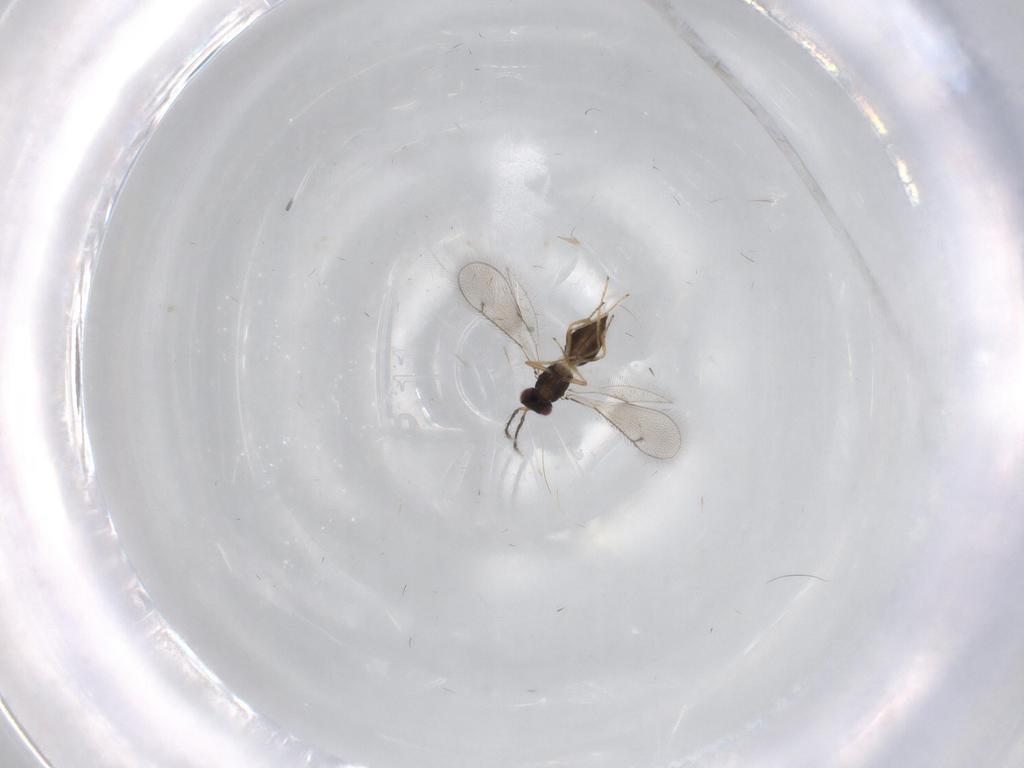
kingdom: Animalia
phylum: Arthropoda
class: Insecta
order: Hymenoptera
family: Eulophidae
